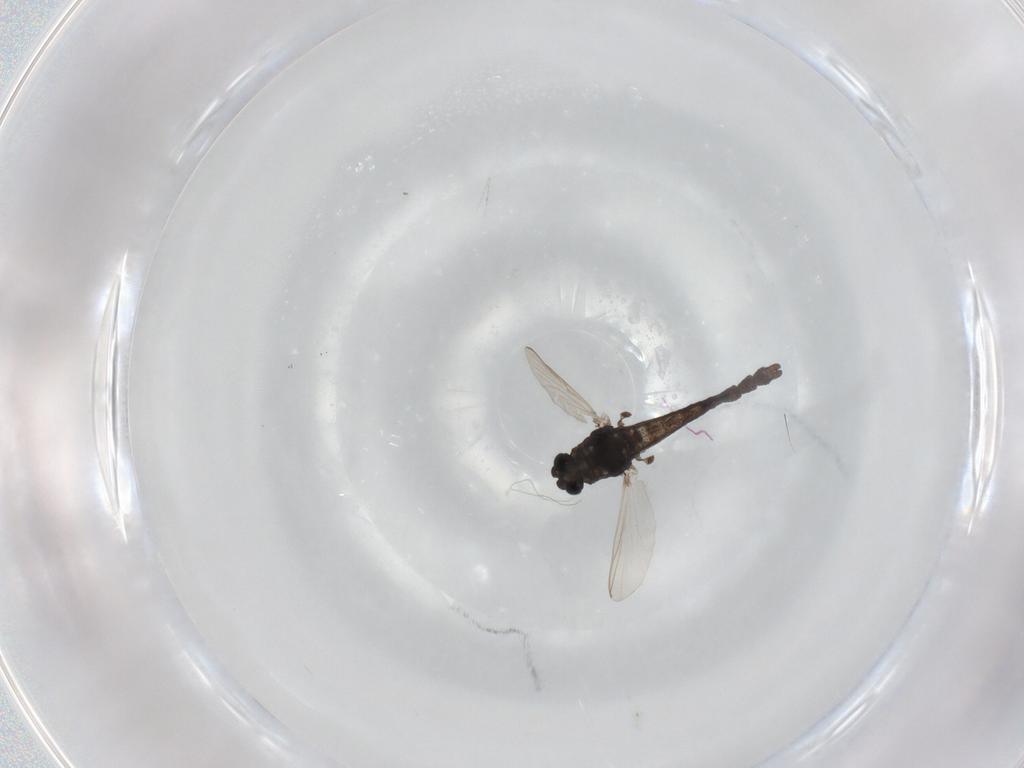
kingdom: Animalia
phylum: Arthropoda
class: Insecta
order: Diptera
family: Chironomidae
